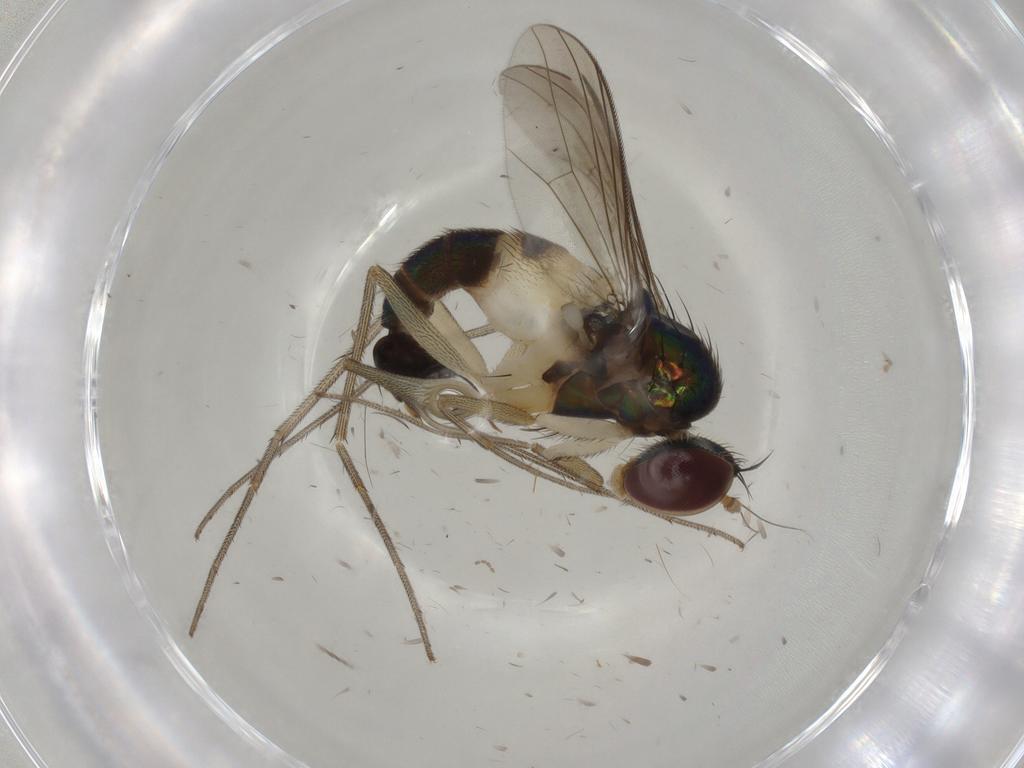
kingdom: Animalia
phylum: Arthropoda
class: Insecta
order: Diptera
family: Dolichopodidae
